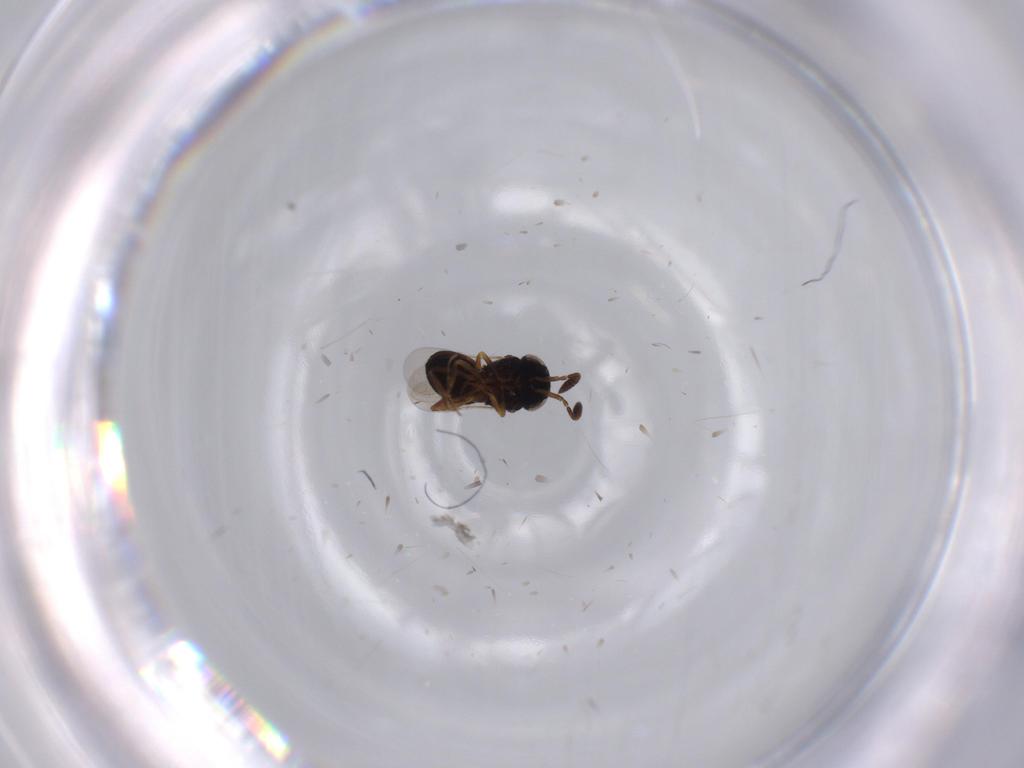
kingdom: Animalia
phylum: Arthropoda
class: Insecta
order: Hymenoptera
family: Scelionidae
